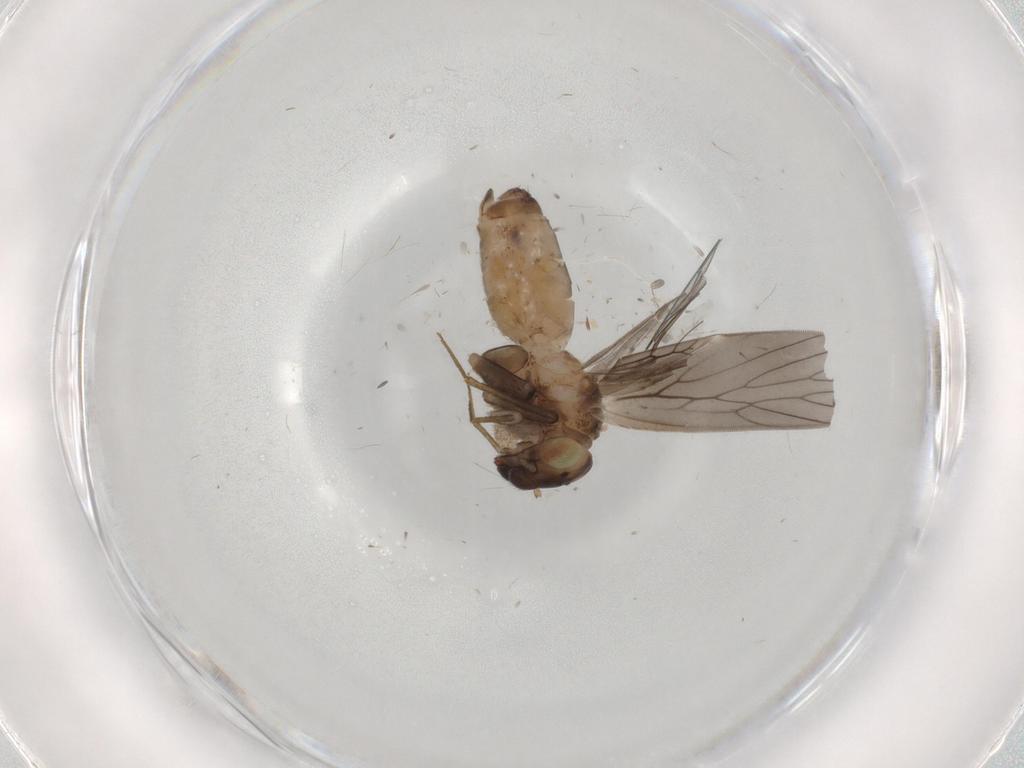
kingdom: Animalia
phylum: Arthropoda
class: Insecta
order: Psocodea
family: Lepidopsocidae
